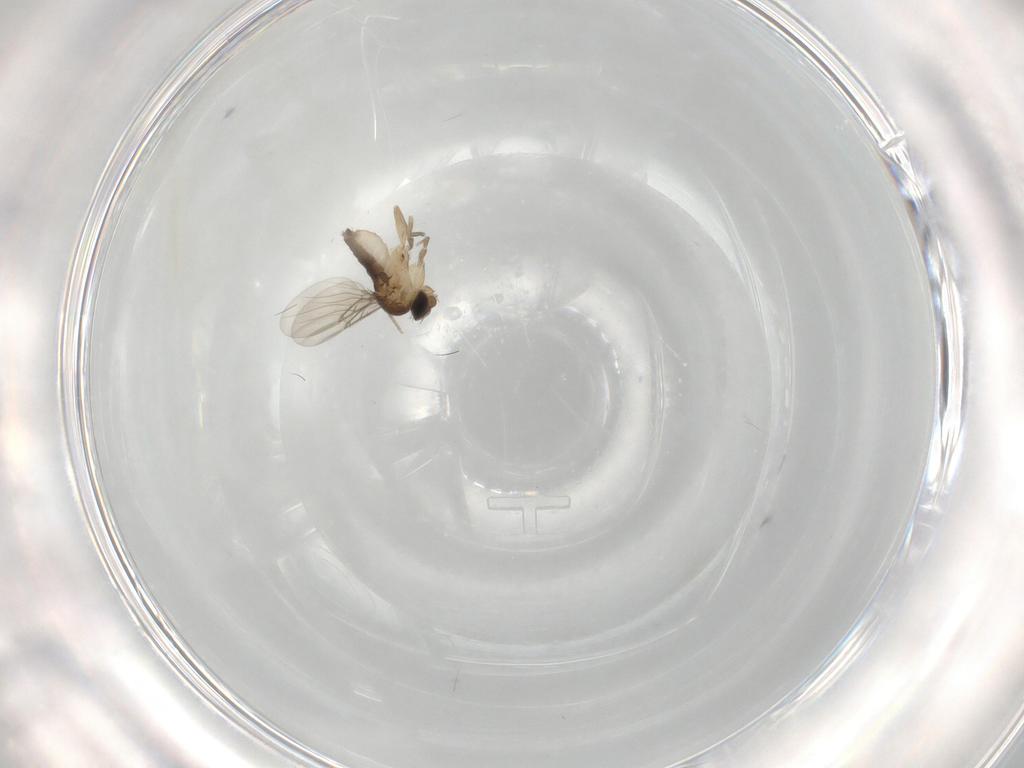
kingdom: Animalia
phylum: Arthropoda
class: Insecta
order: Diptera
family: Phoridae
